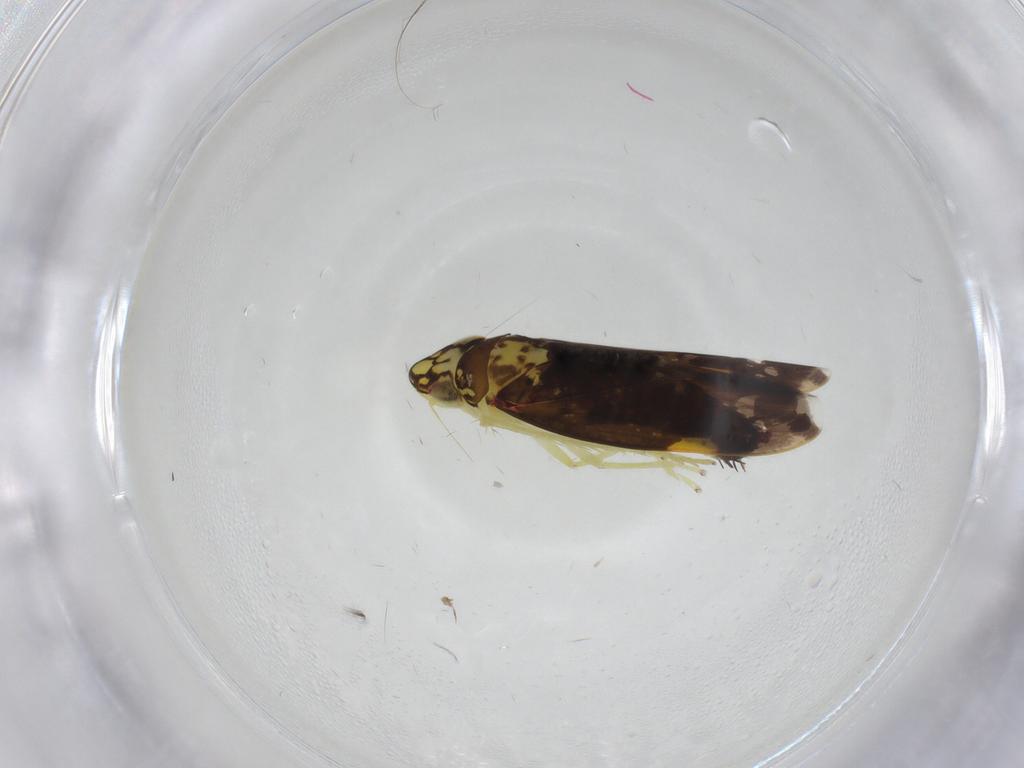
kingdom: Animalia
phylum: Arthropoda
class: Insecta
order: Hemiptera
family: Cicadellidae
